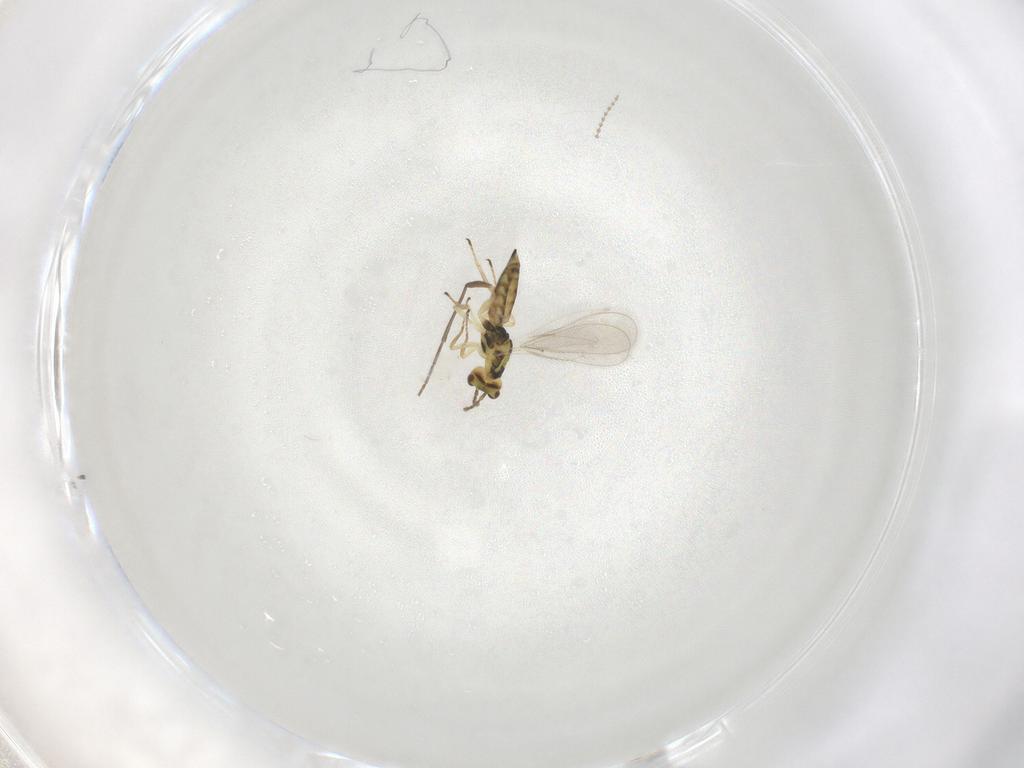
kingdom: Animalia
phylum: Arthropoda
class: Insecta
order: Hymenoptera
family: Eulophidae
